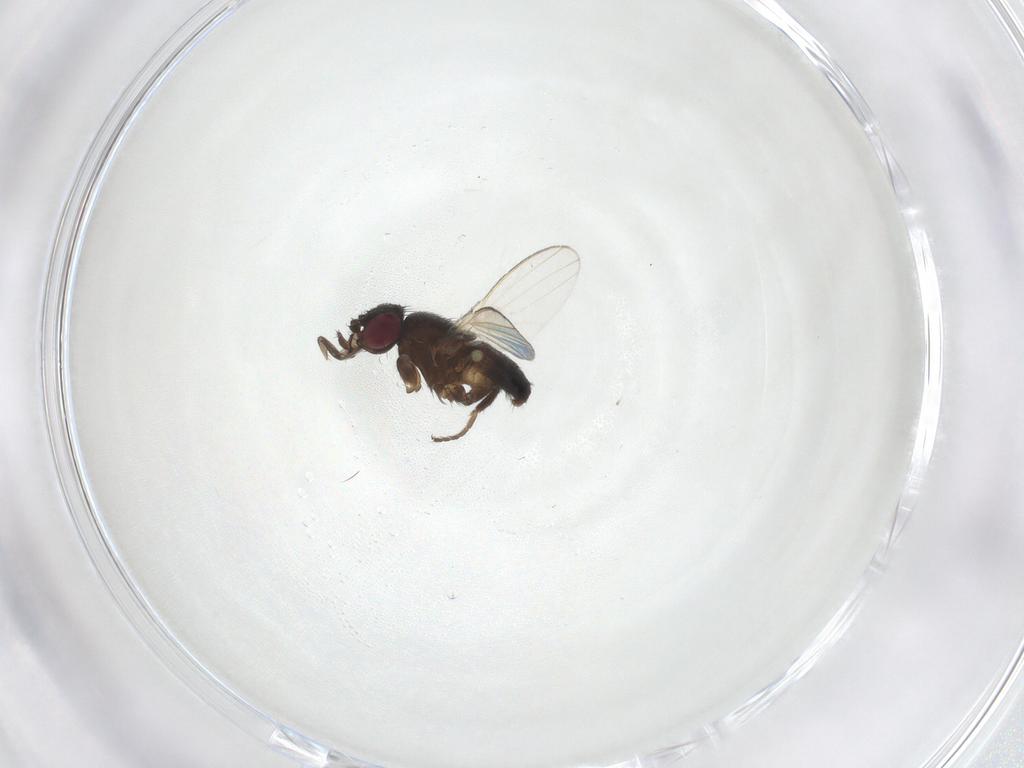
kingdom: Animalia
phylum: Arthropoda
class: Insecta
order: Diptera
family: Milichiidae
